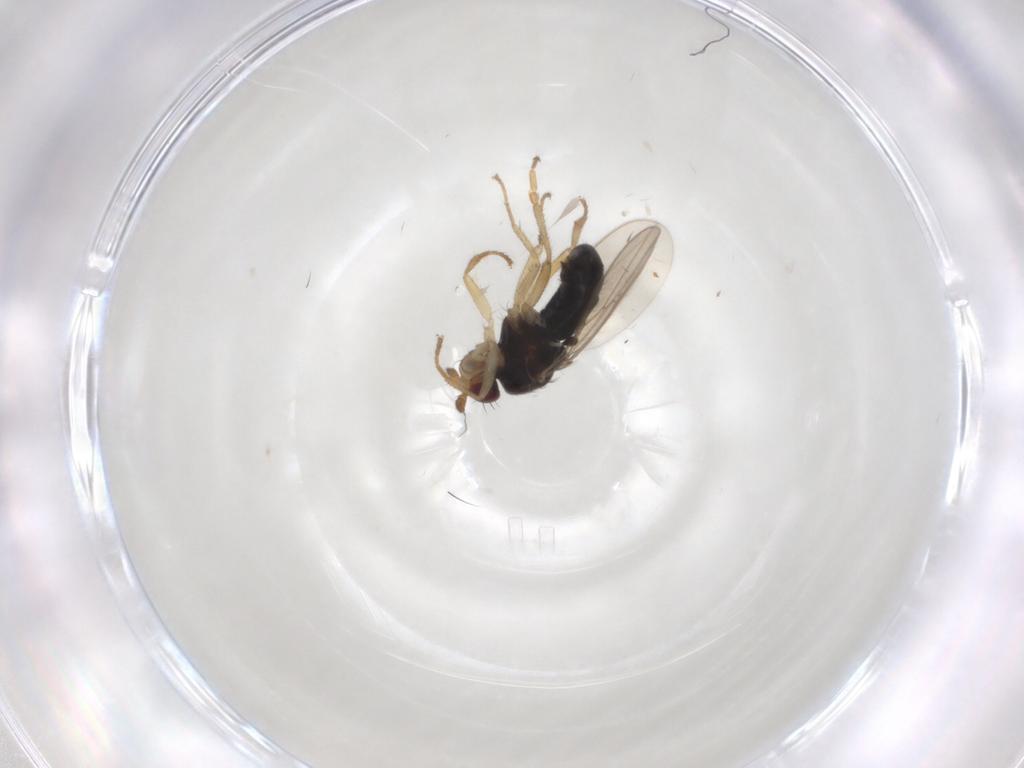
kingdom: Animalia
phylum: Arthropoda
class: Insecta
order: Diptera
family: Sphaeroceridae
